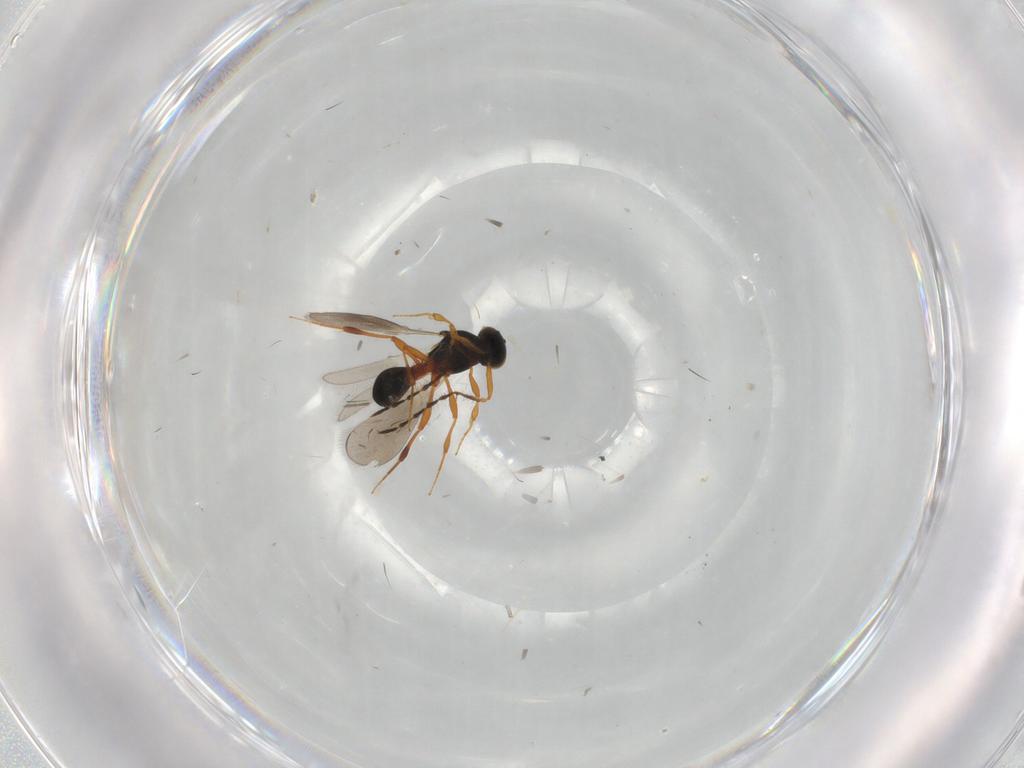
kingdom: Animalia
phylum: Arthropoda
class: Insecta
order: Hymenoptera
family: Platygastridae
